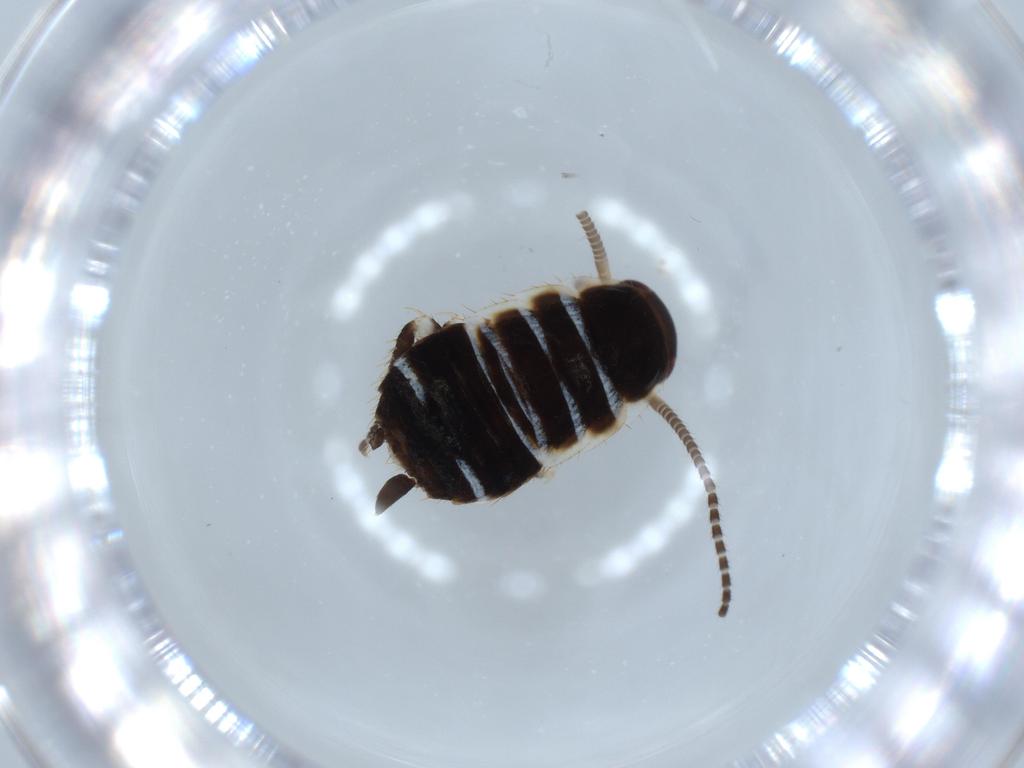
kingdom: Animalia
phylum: Arthropoda
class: Insecta
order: Blattodea
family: Ectobiidae
